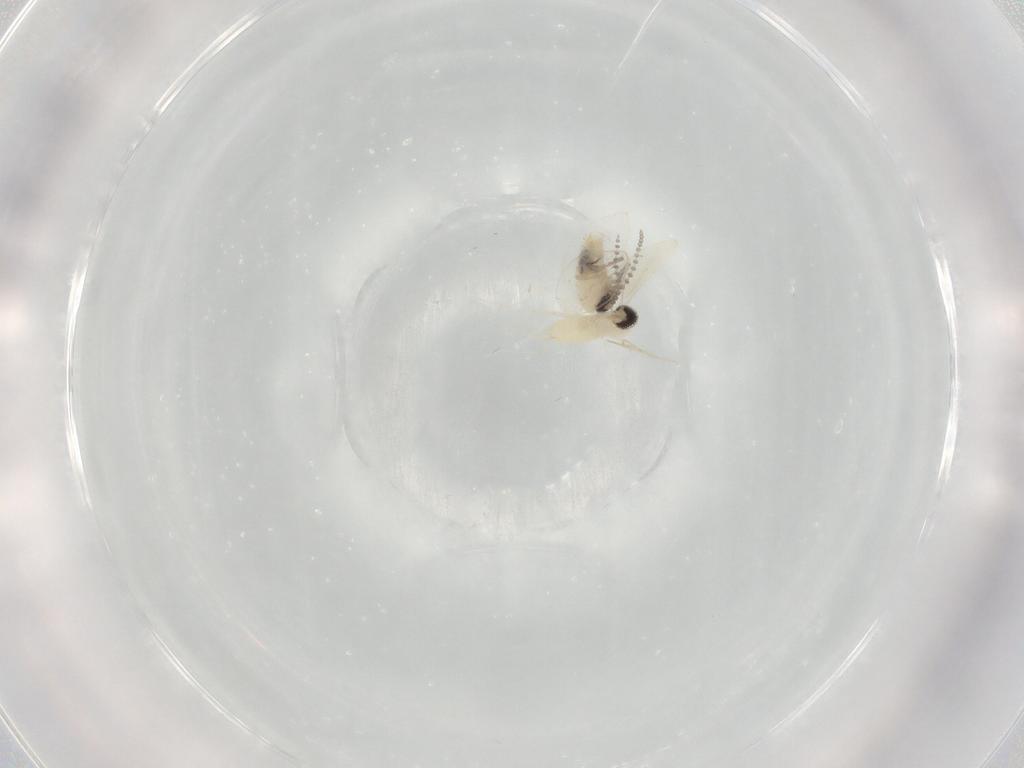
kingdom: Animalia
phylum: Arthropoda
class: Insecta
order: Diptera
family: Psychodidae
